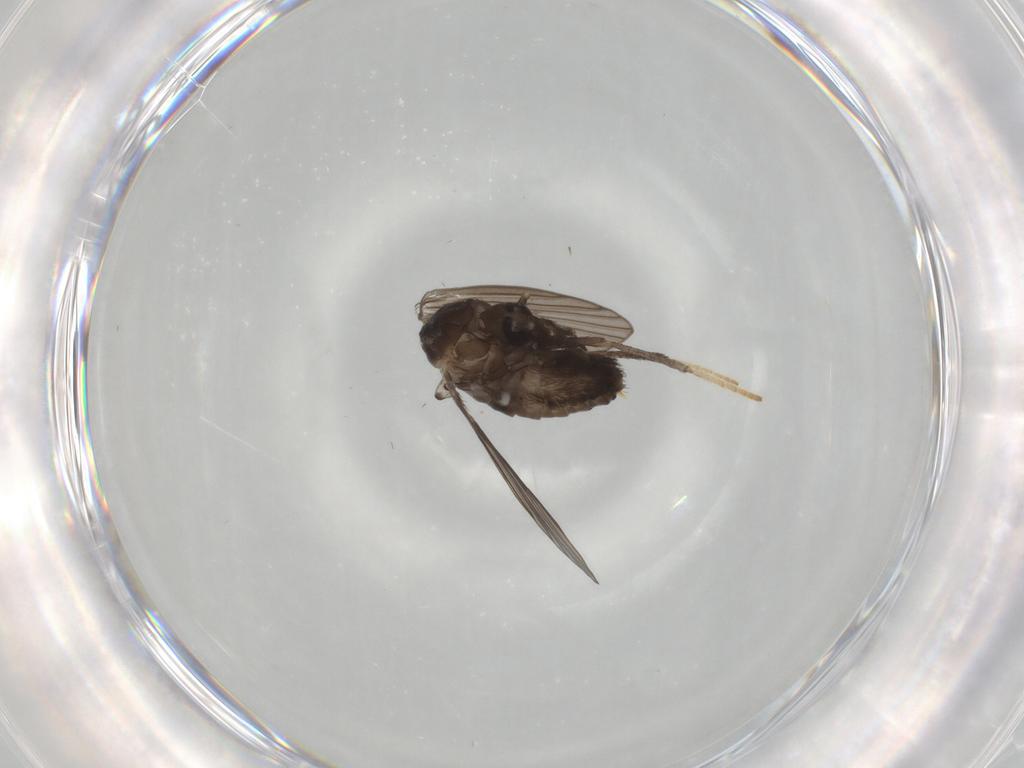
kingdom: Animalia
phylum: Arthropoda
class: Insecta
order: Diptera
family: Psychodidae
